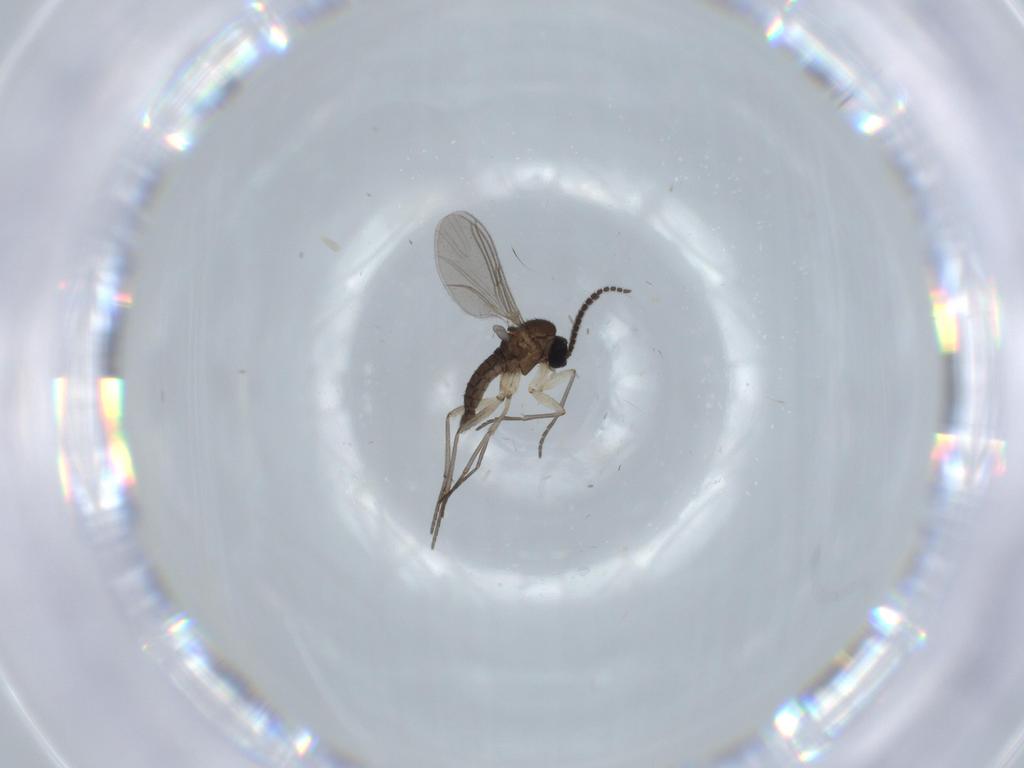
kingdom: Animalia
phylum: Arthropoda
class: Insecta
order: Diptera
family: Sciaridae
